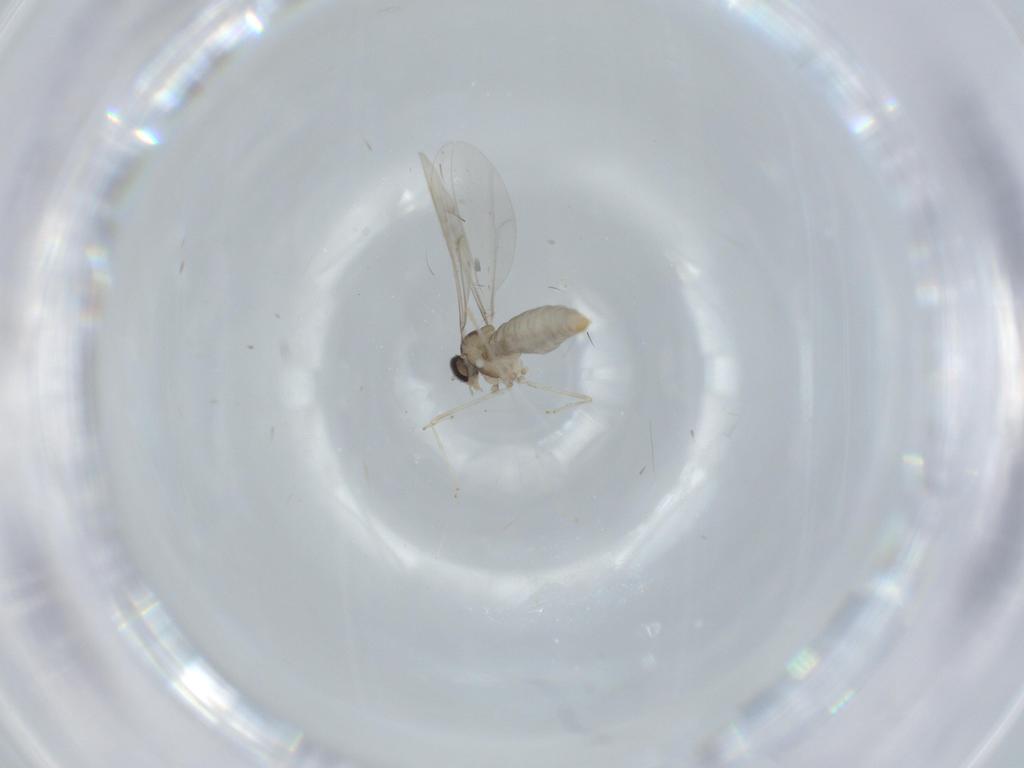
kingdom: Animalia
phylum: Arthropoda
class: Insecta
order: Diptera
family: Cecidomyiidae
